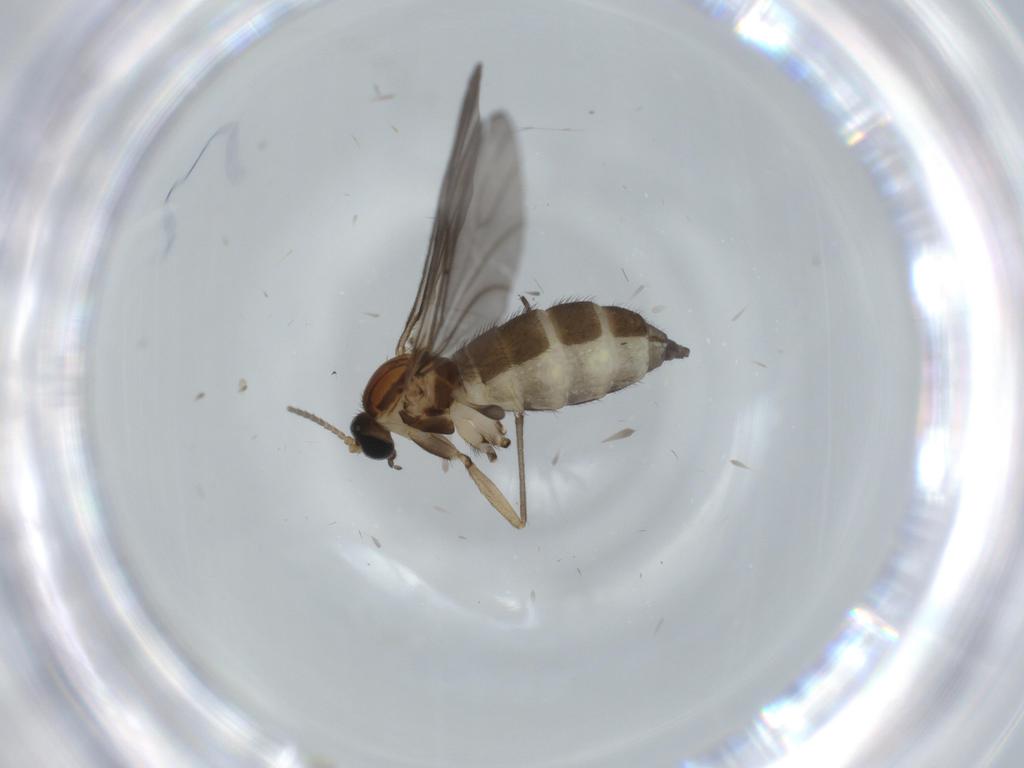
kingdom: Animalia
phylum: Arthropoda
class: Insecta
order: Diptera
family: Sciaridae
